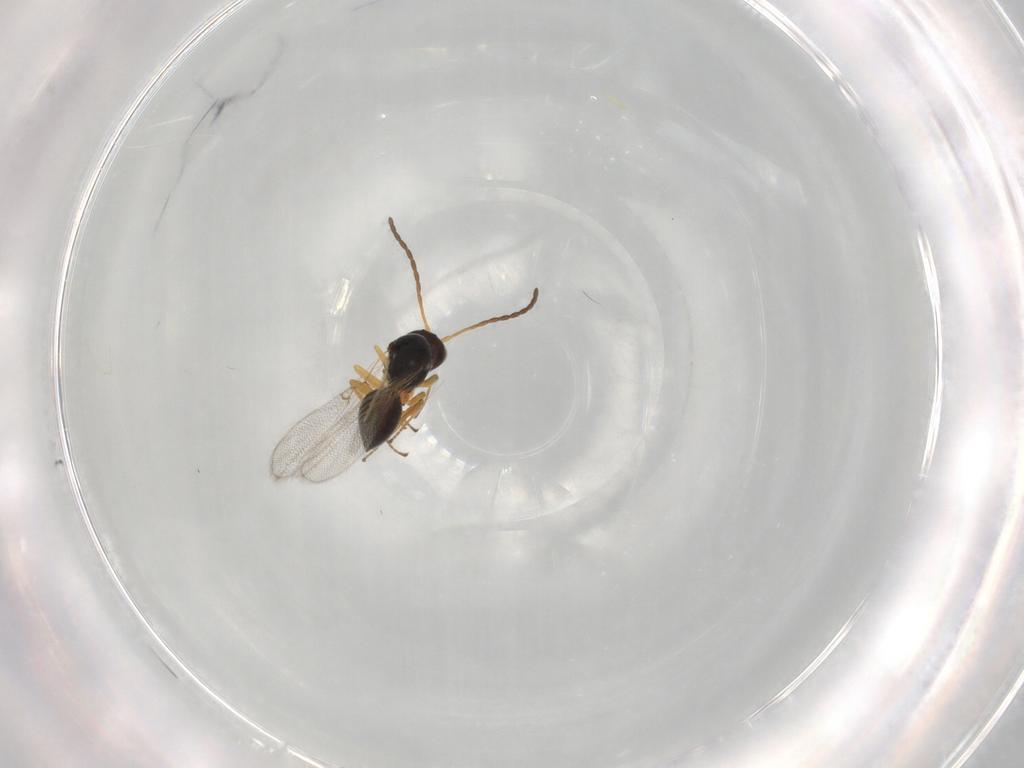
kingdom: Animalia
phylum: Arthropoda
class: Insecta
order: Hymenoptera
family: Figitidae
